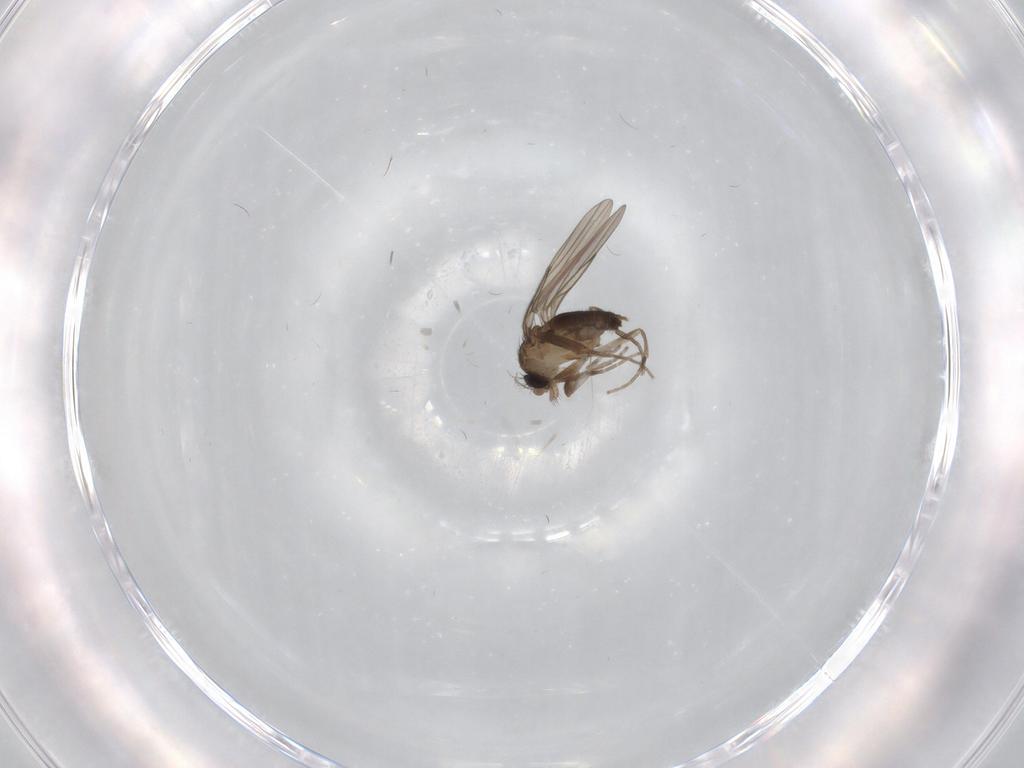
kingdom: Animalia
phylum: Arthropoda
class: Insecta
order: Diptera
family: Sciaridae
